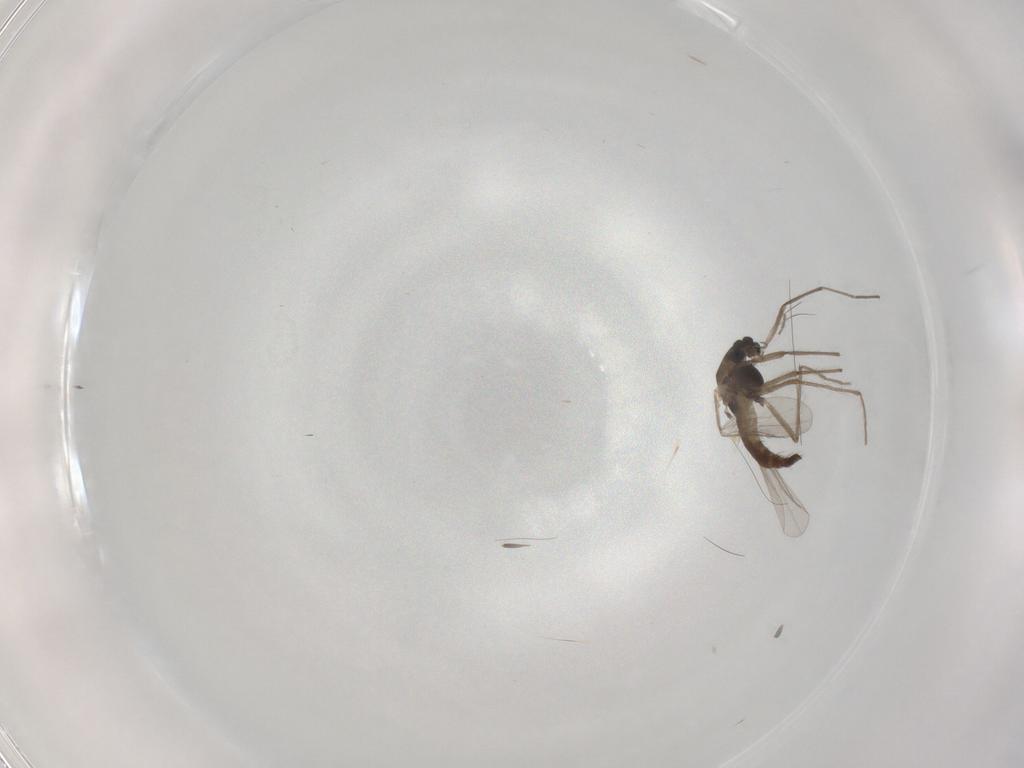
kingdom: Animalia
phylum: Arthropoda
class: Insecta
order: Diptera
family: Chironomidae
